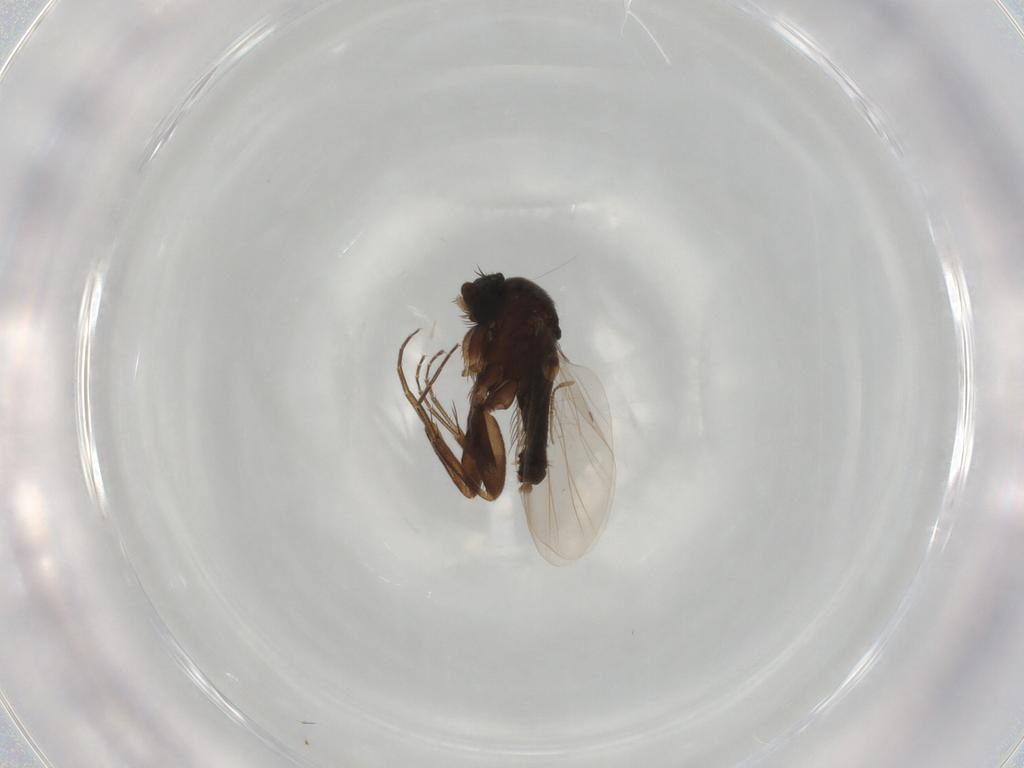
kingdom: Animalia
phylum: Arthropoda
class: Insecta
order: Diptera
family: Phoridae
